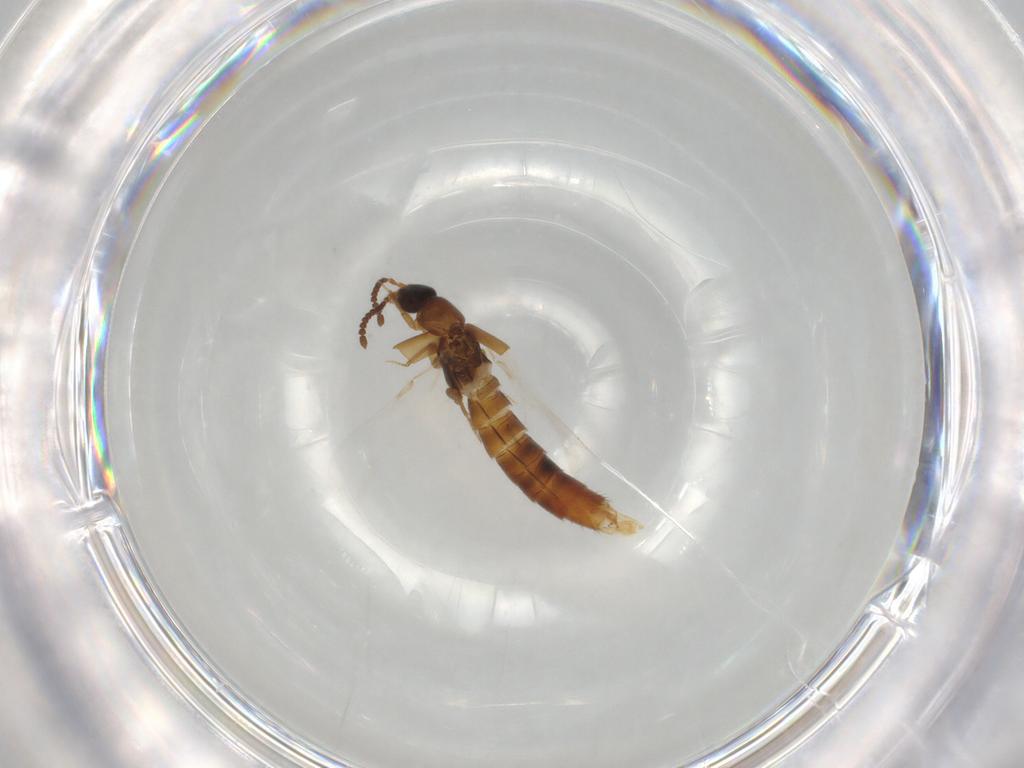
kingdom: Animalia
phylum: Arthropoda
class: Insecta
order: Coleoptera
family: Staphylinidae
